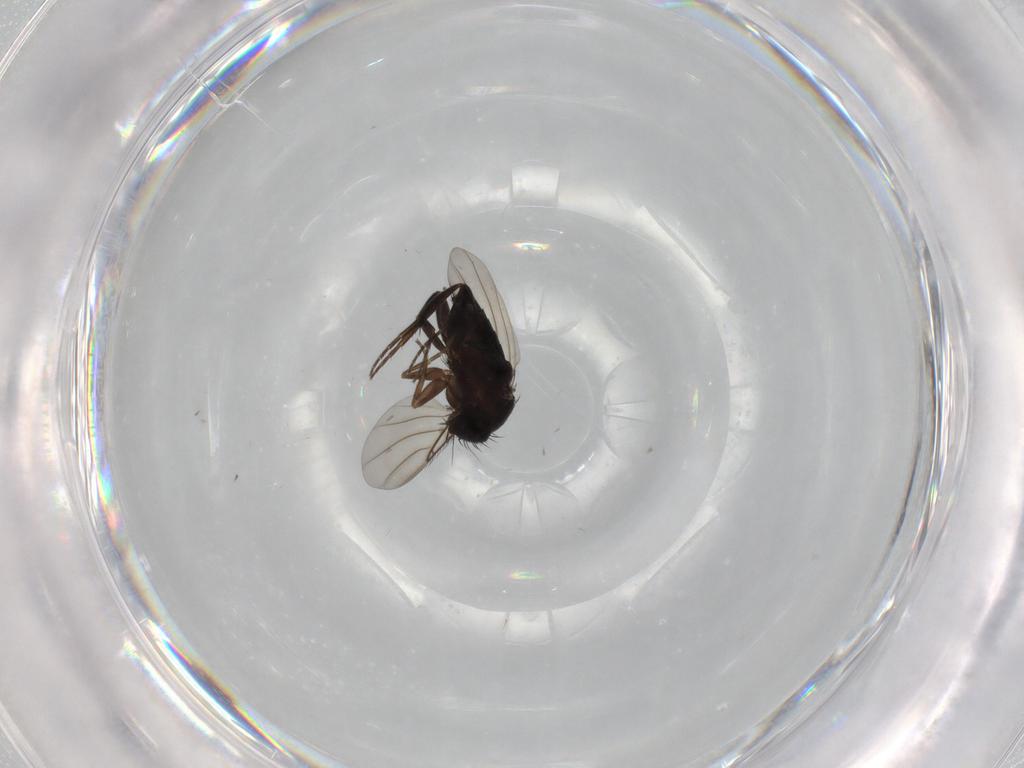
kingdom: Animalia
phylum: Arthropoda
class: Insecta
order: Diptera
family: Phoridae
